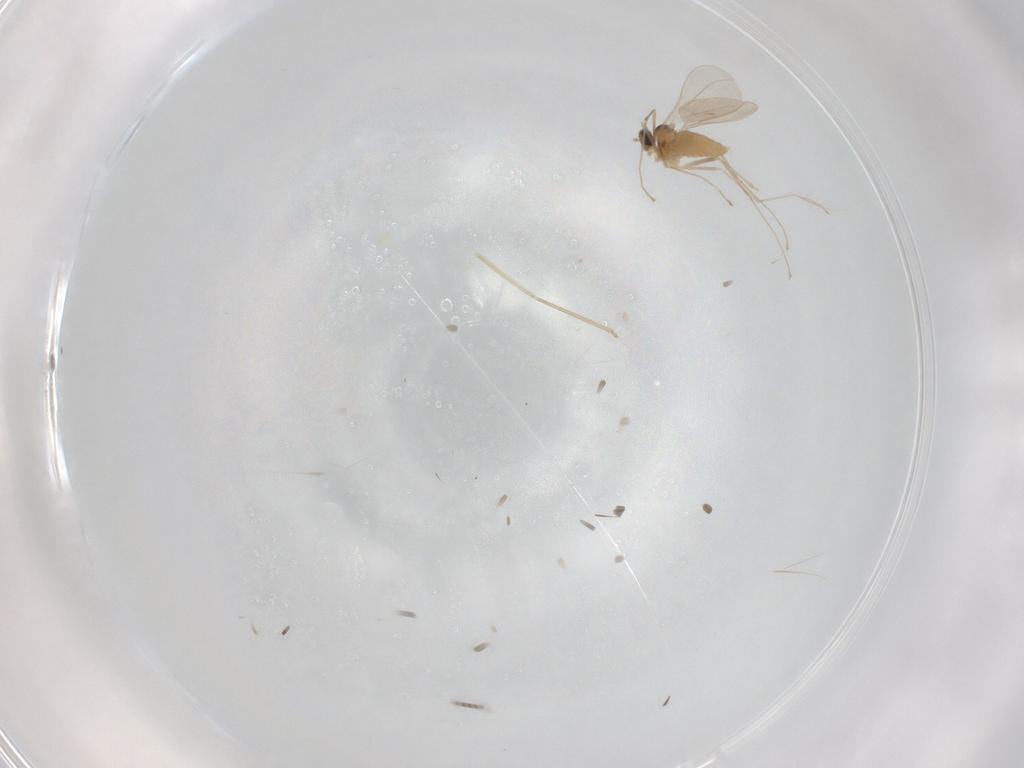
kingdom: Animalia
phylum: Arthropoda
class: Insecta
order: Diptera
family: Cecidomyiidae
